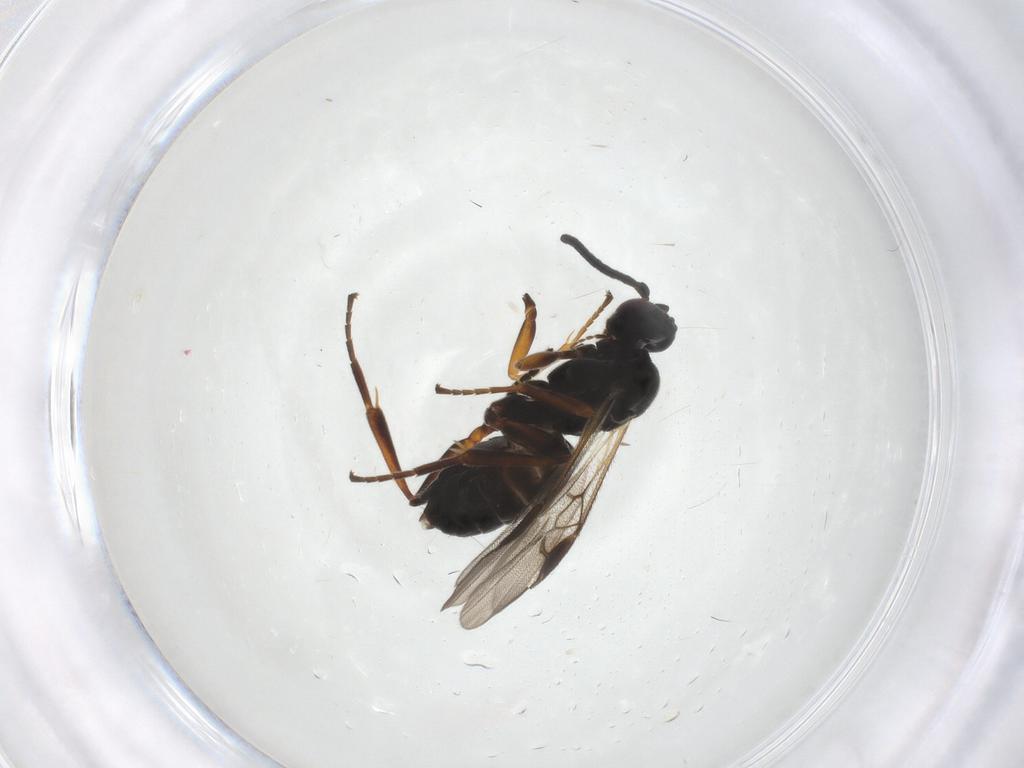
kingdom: Animalia
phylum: Arthropoda
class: Insecta
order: Hymenoptera
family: Braconidae
